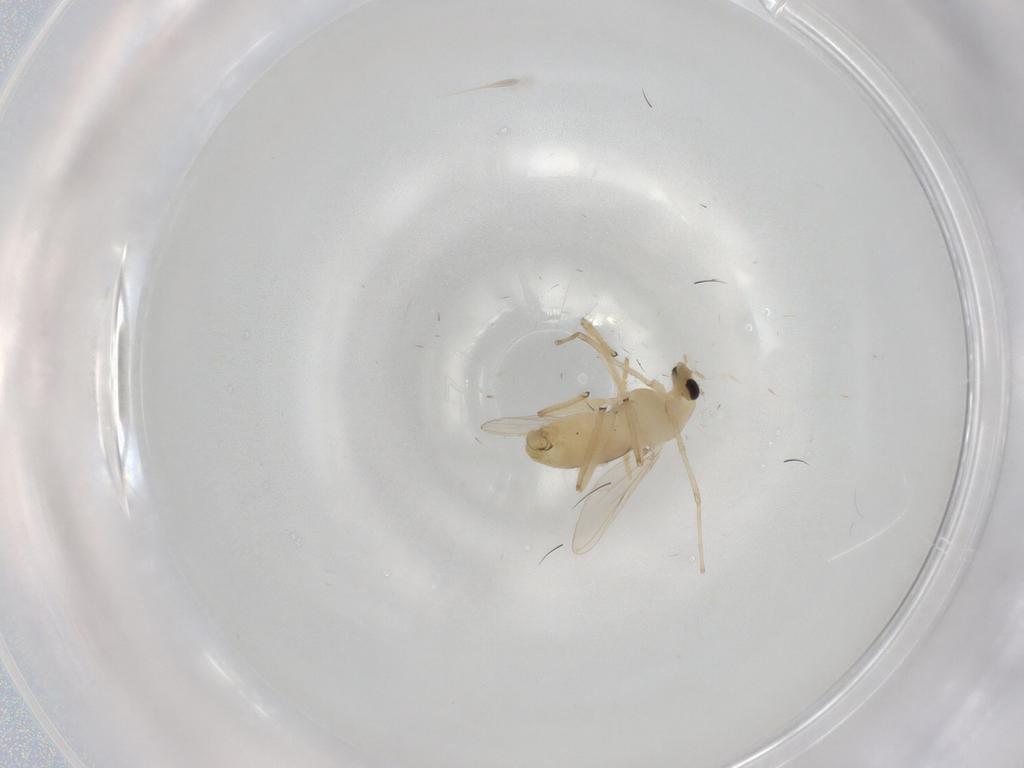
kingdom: Animalia
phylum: Arthropoda
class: Insecta
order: Diptera
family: Chironomidae
